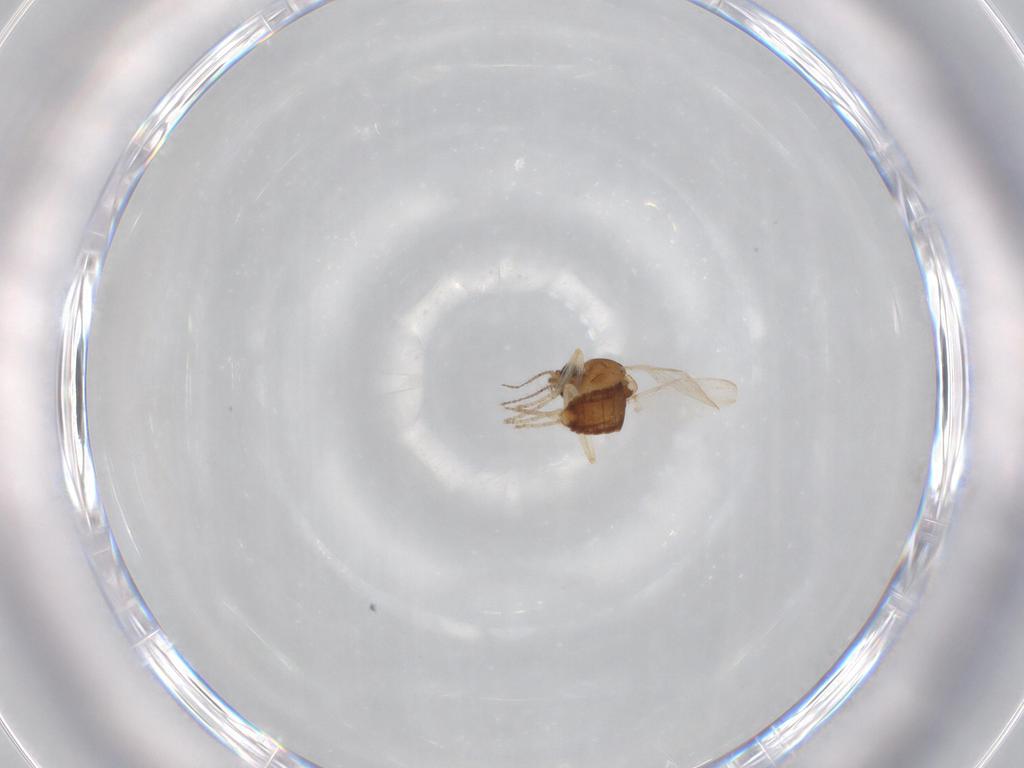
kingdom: Animalia
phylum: Arthropoda
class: Insecta
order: Diptera
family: Ceratopogonidae
